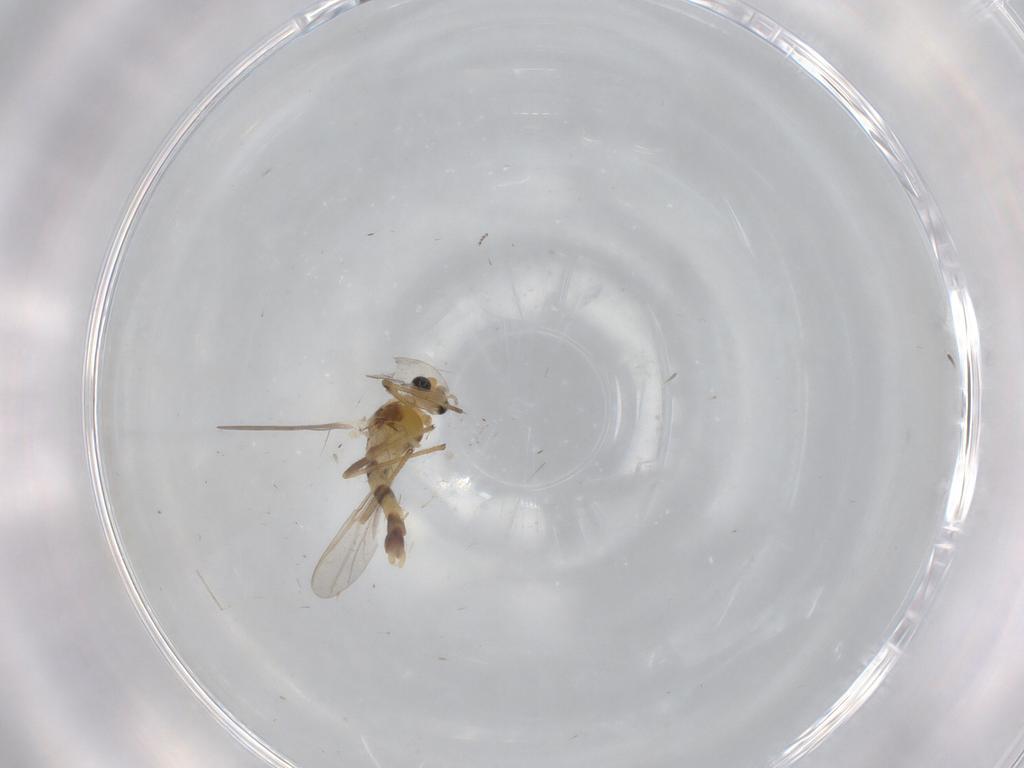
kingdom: Animalia
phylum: Arthropoda
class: Insecta
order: Diptera
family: Chironomidae
